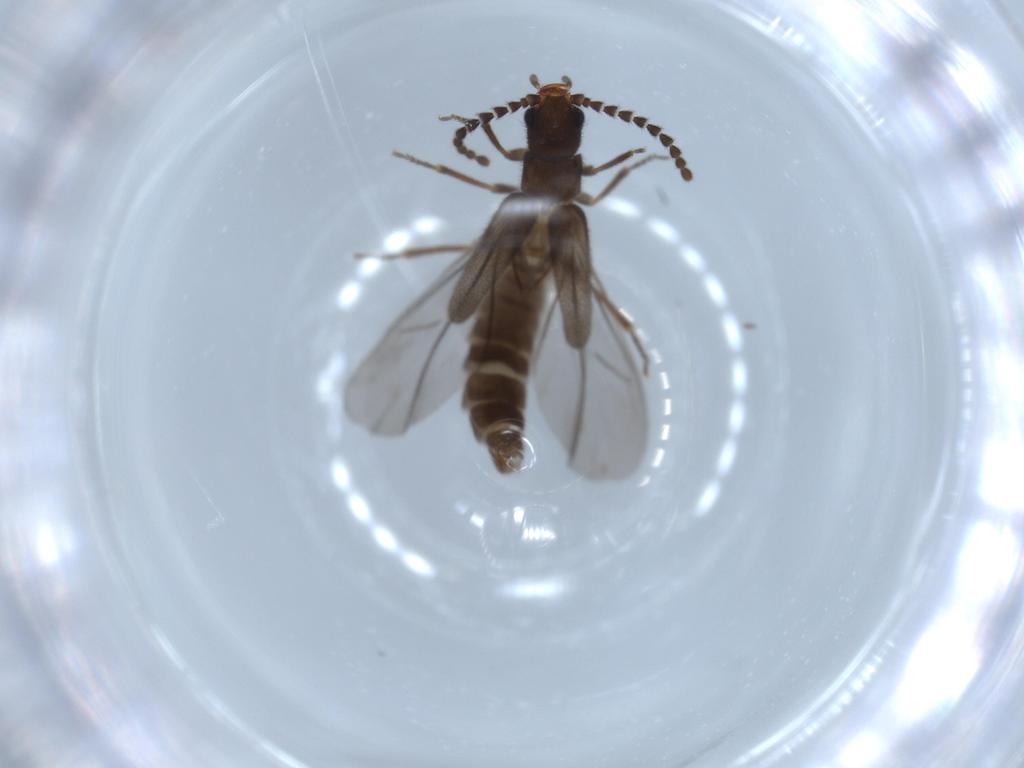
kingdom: Animalia
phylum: Arthropoda
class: Insecta
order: Coleoptera
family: Omethidae
